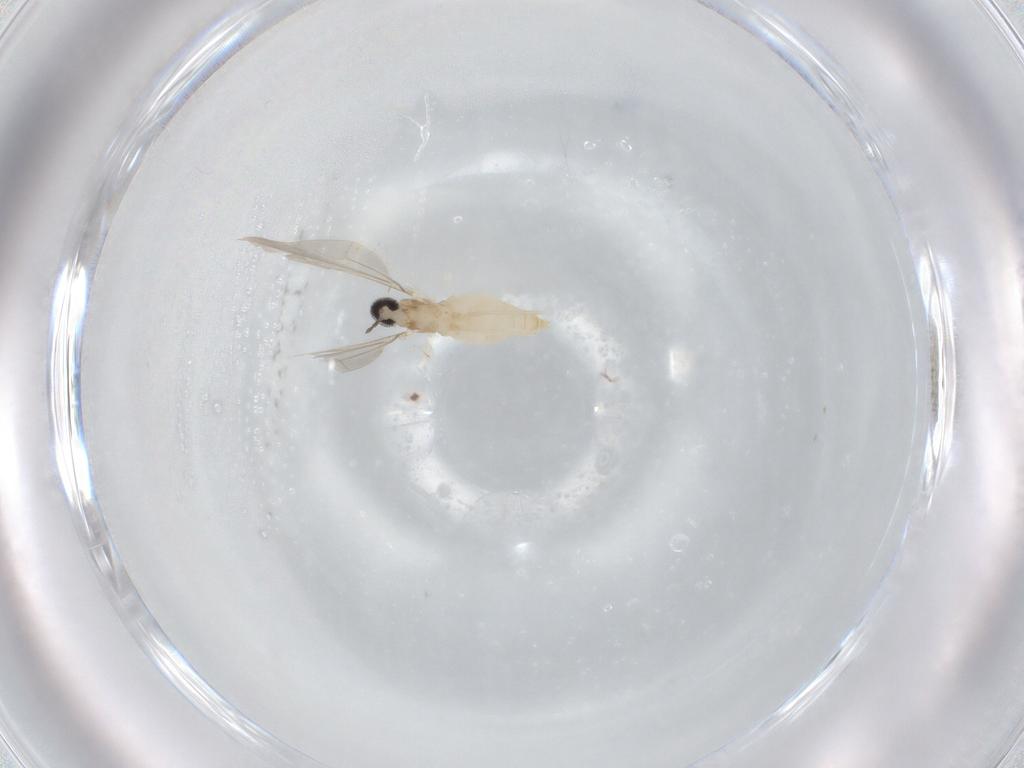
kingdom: Animalia
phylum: Arthropoda
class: Insecta
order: Diptera
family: Cecidomyiidae
